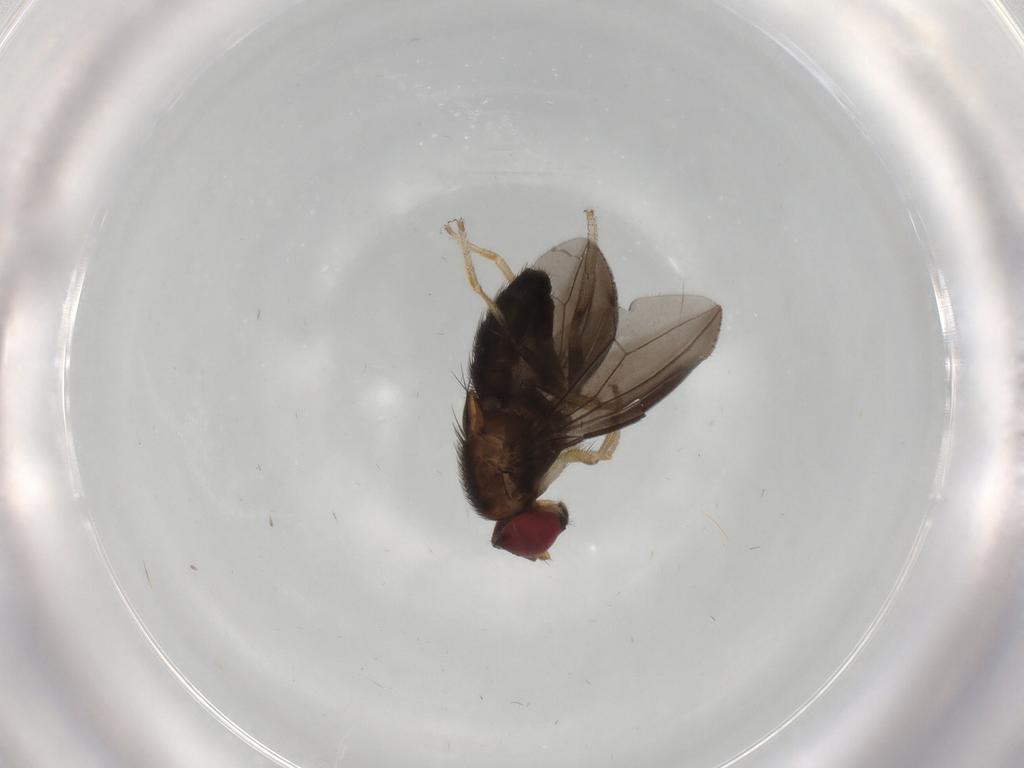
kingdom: Animalia
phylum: Arthropoda
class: Insecta
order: Diptera
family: Drosophilidae
